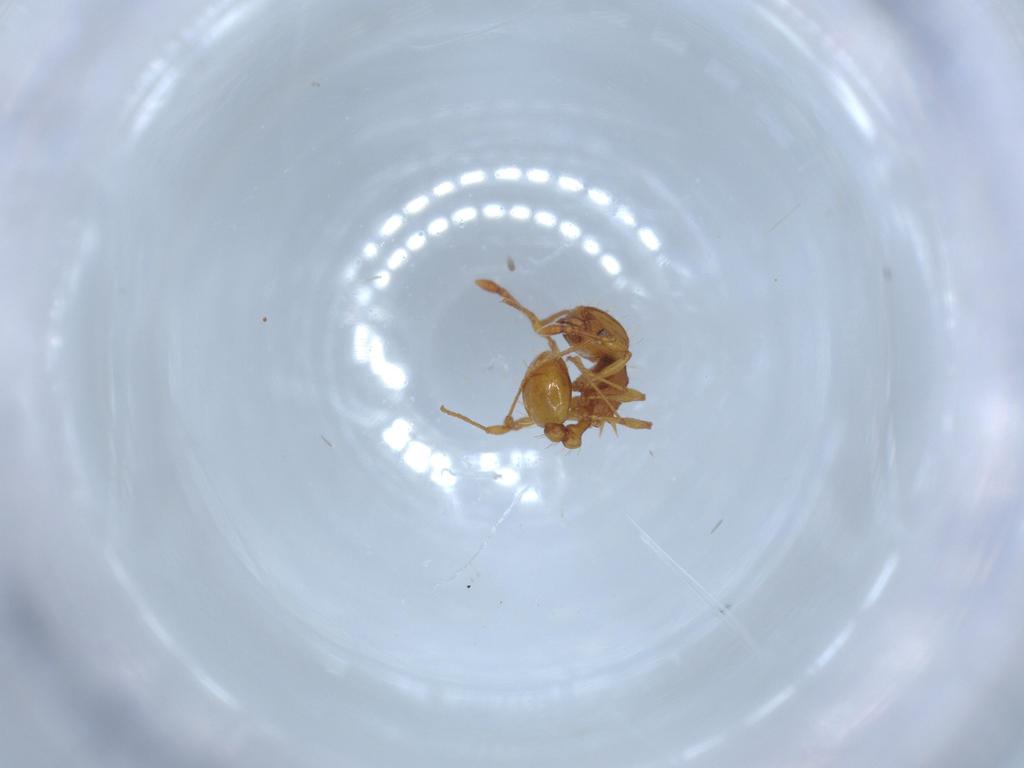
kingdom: Animalia
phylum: Arthropoda
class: Insecta
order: Hymenoptera
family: Formicidae
